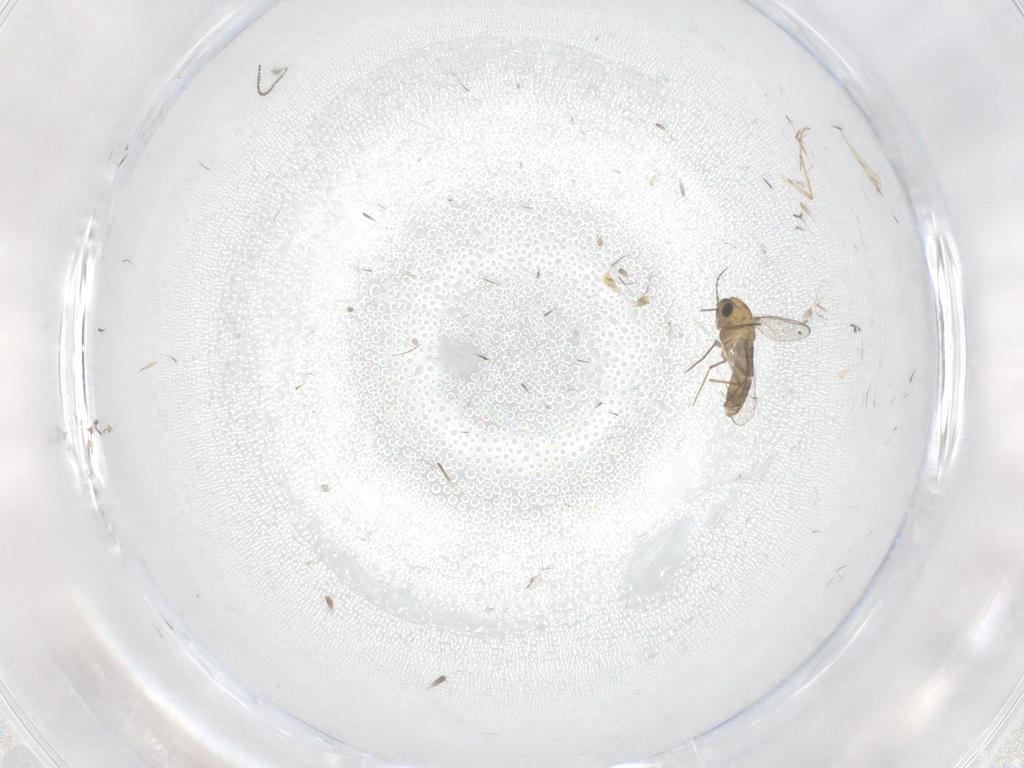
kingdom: Animalia
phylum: Arthropoda
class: Insecta
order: Diptera
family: Chironomidae
